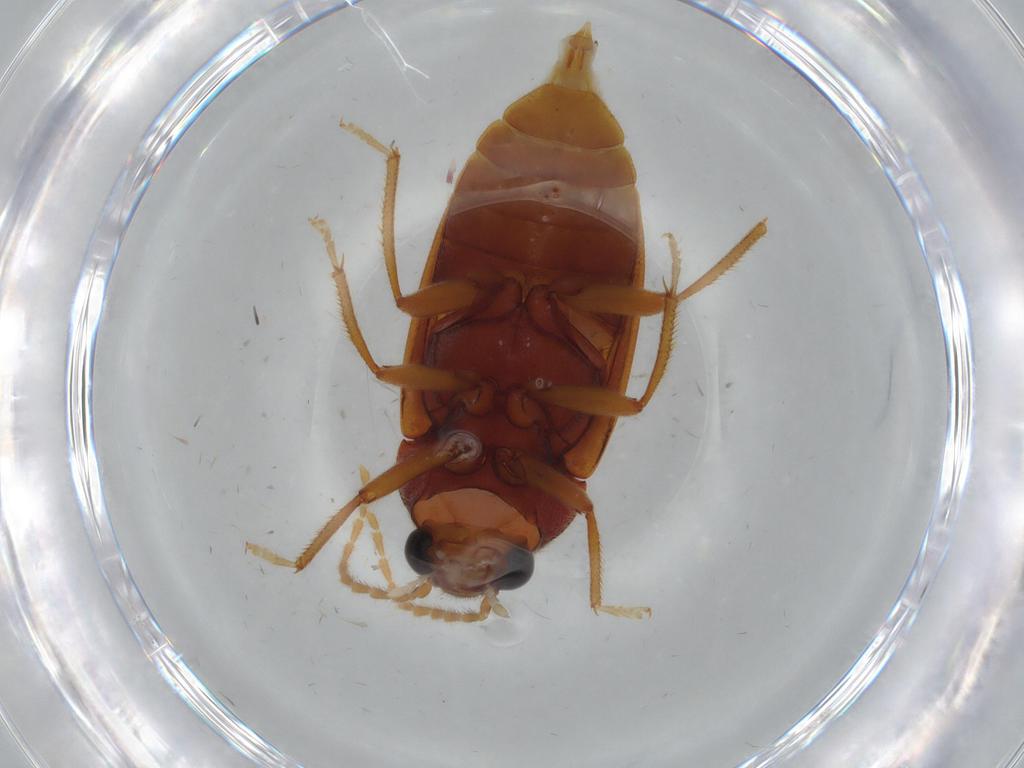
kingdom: Animalia
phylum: Arthropoda
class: Insecta
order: Coleoptera
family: Ptilodactylidae
